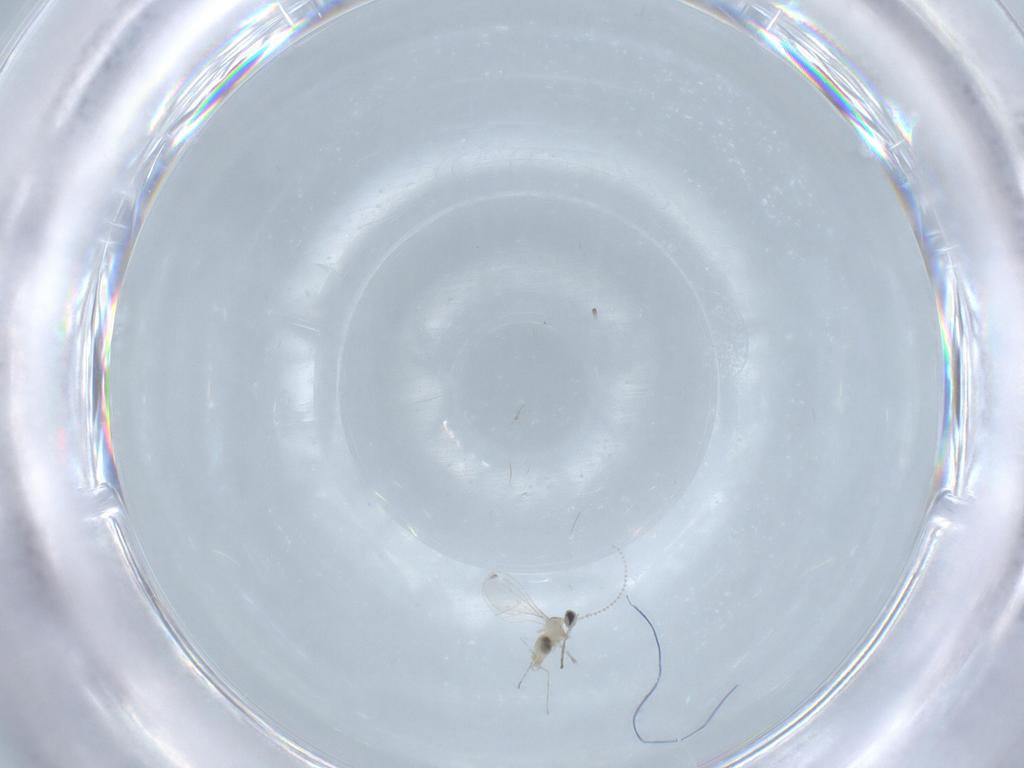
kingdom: Animalia
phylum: Arthropoda
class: Insecta
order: Diptera
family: Cecidomyiidae
